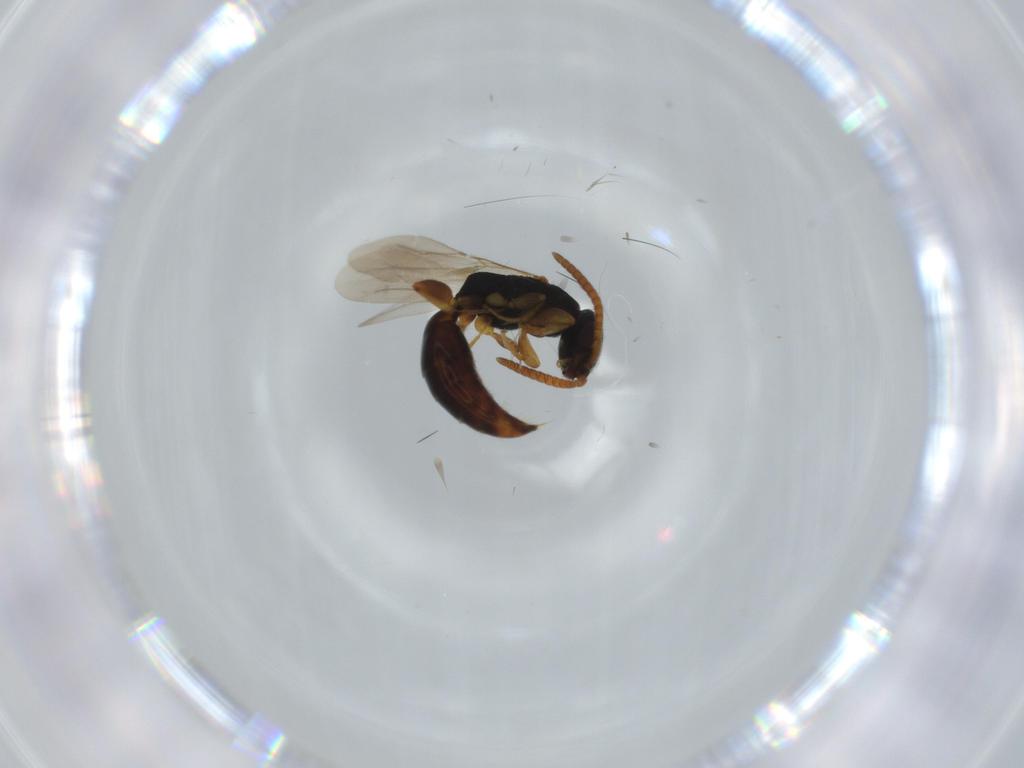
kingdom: Animalia
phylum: Arthropoda
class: Insecta
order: Hymenoptera
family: Bethylidae
